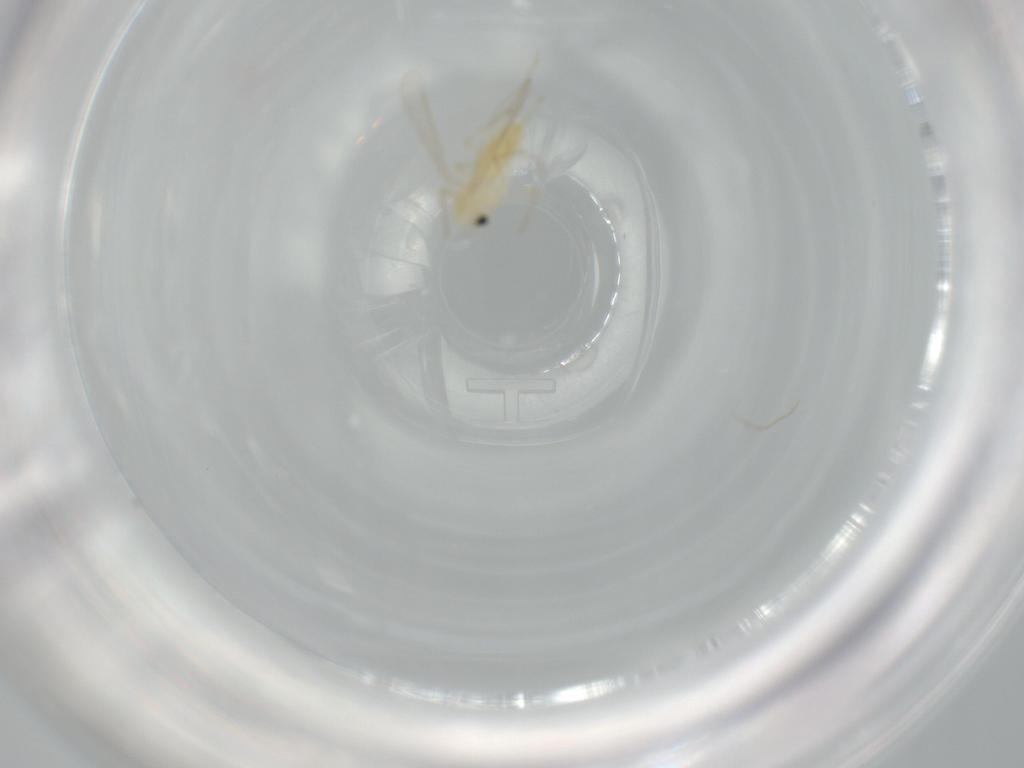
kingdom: Animalia
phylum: Arthropoda
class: Insecta
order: Diptera
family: Chironomidae
